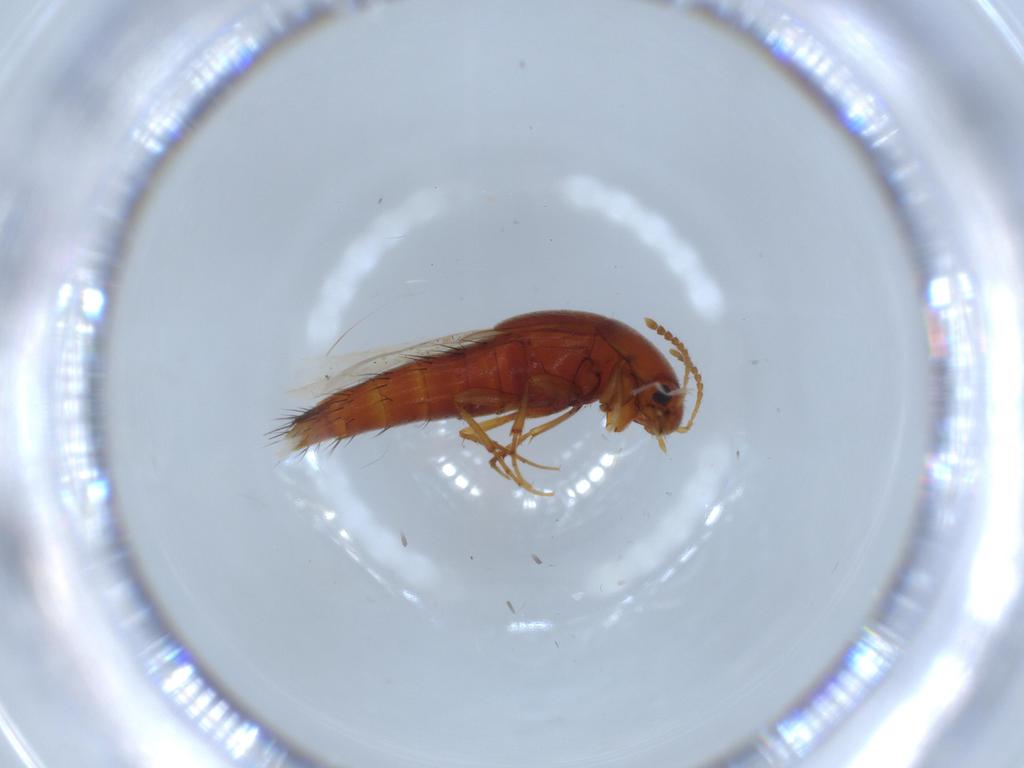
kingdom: Animalia
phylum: Arthropoda
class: Insecta
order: Coleoptera
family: Staphylinidae
